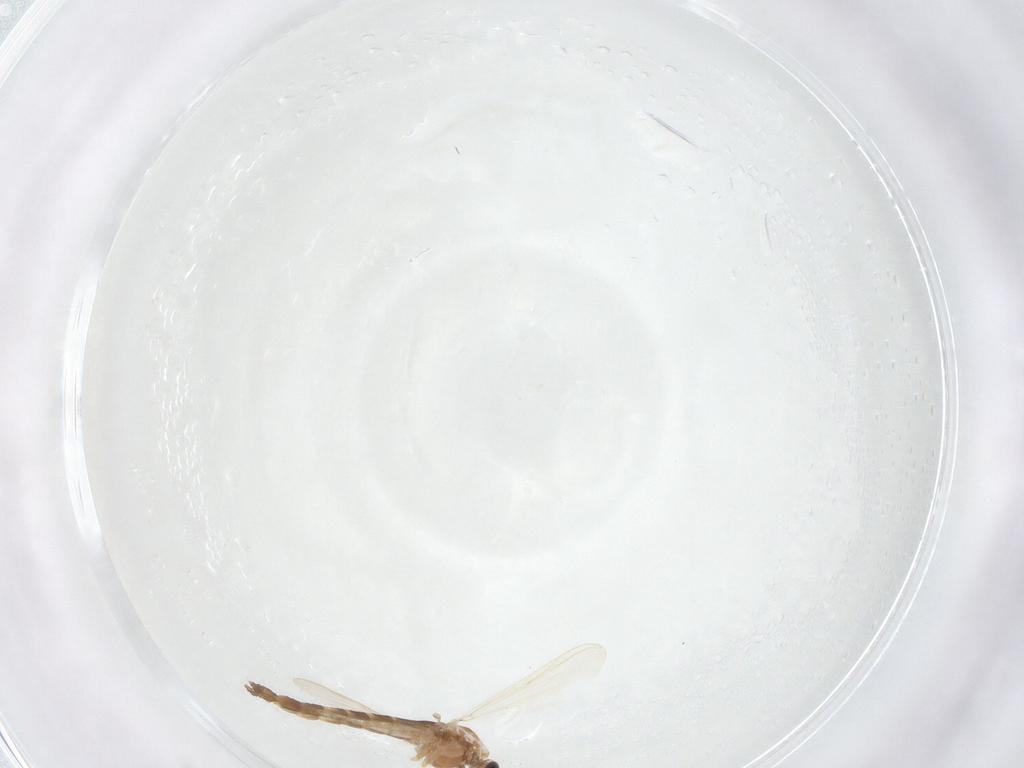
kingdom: Animalia
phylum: Arthropoda
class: Insecta
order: Diptera
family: Chironomidae
